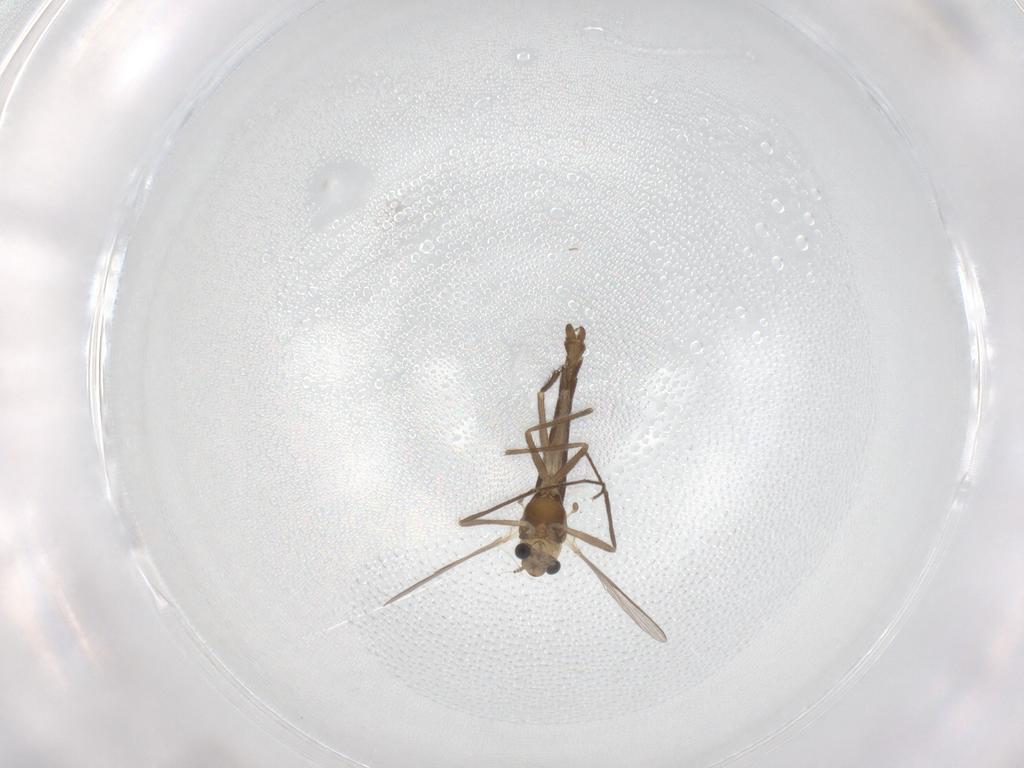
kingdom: Animalia
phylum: Arthropoda
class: Insecta
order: Diptera
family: Chironomidae
